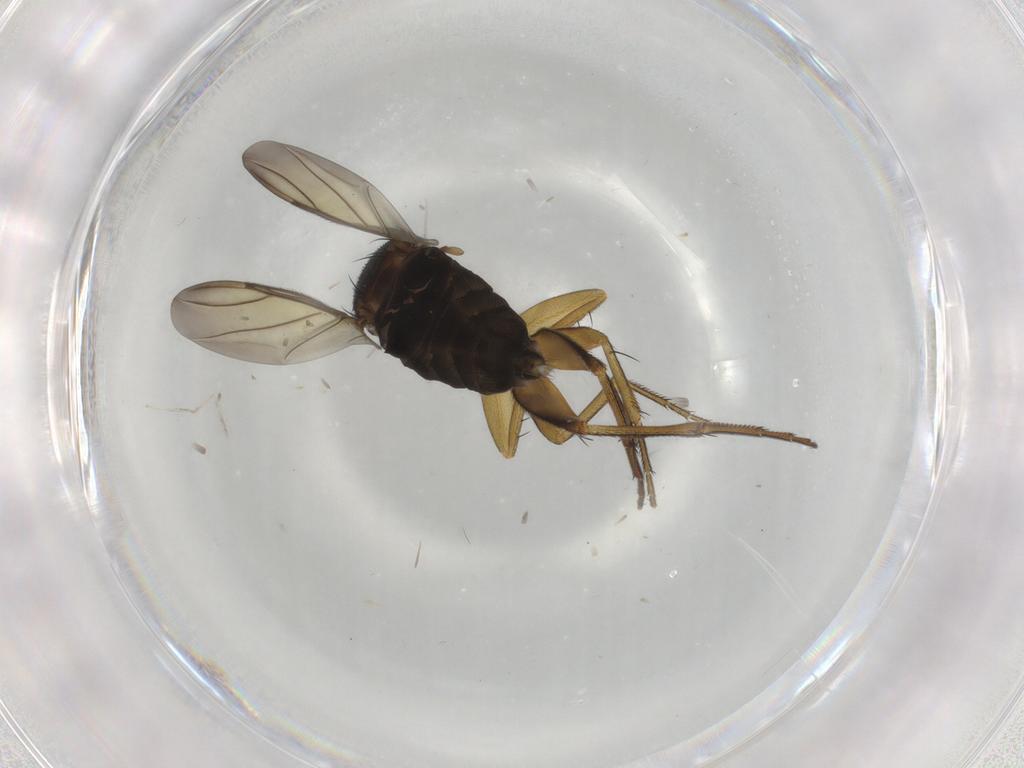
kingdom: Animalia
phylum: Arthropoda
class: Insecta
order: Diptera
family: Phoridae
